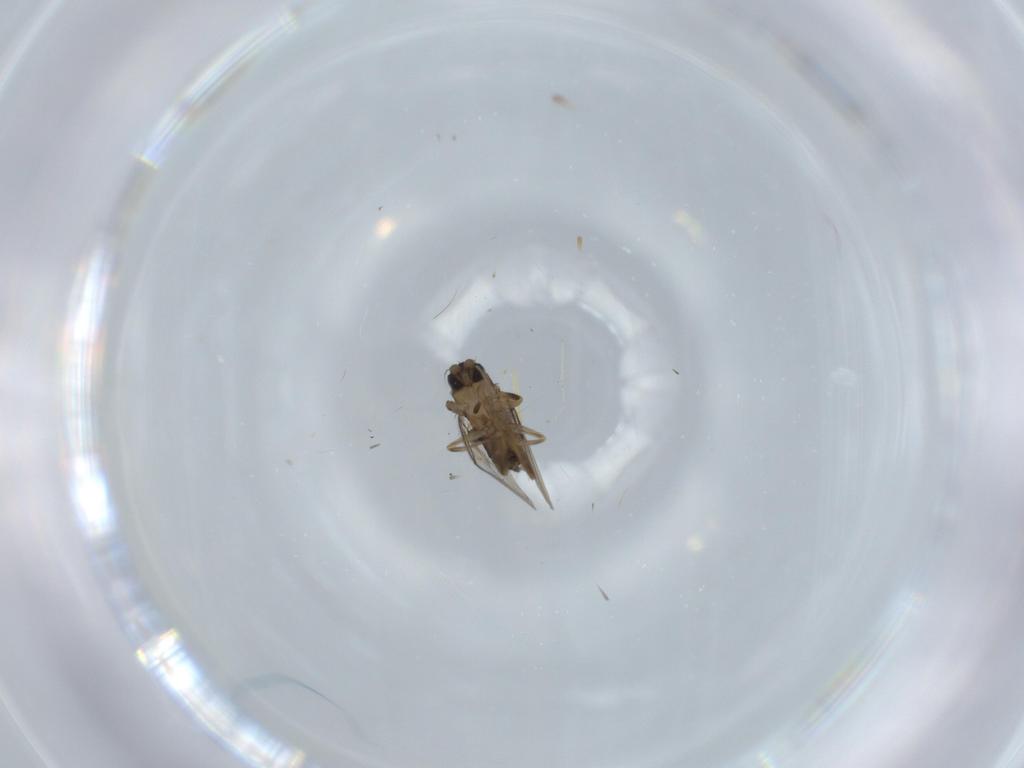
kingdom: Animalia
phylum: Arthropoda
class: Insecta
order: Diptera
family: Phoridae
